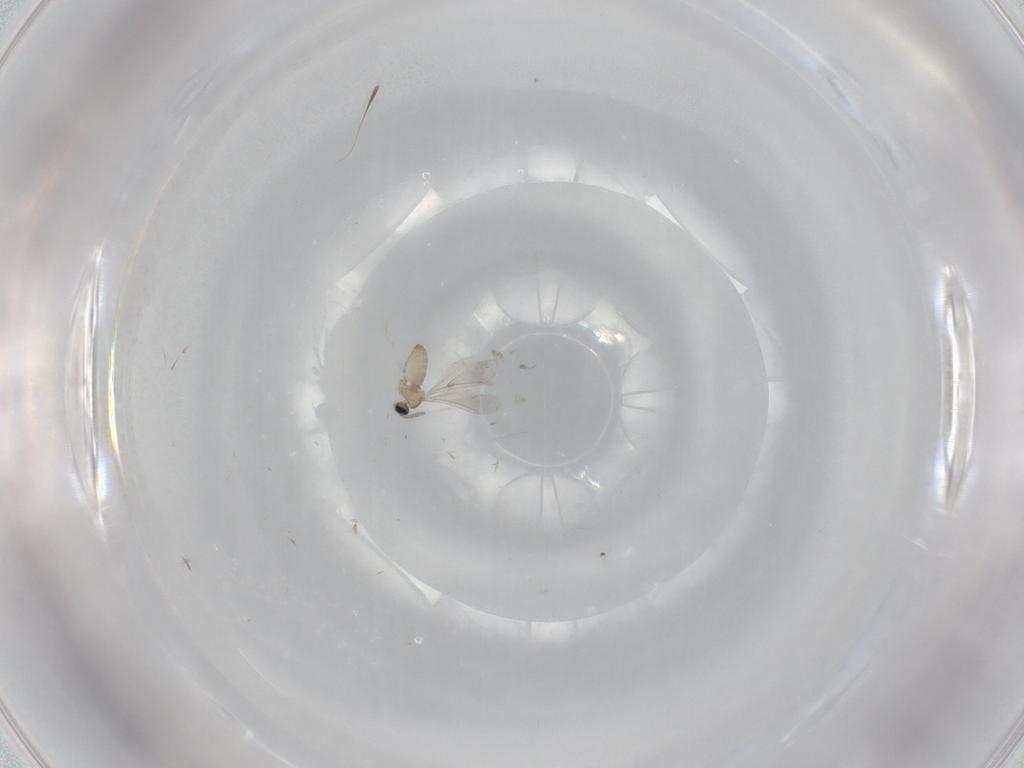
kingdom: Animalia
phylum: Arthropoda
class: Insecta
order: Diptera
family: Cecidomyiidae
